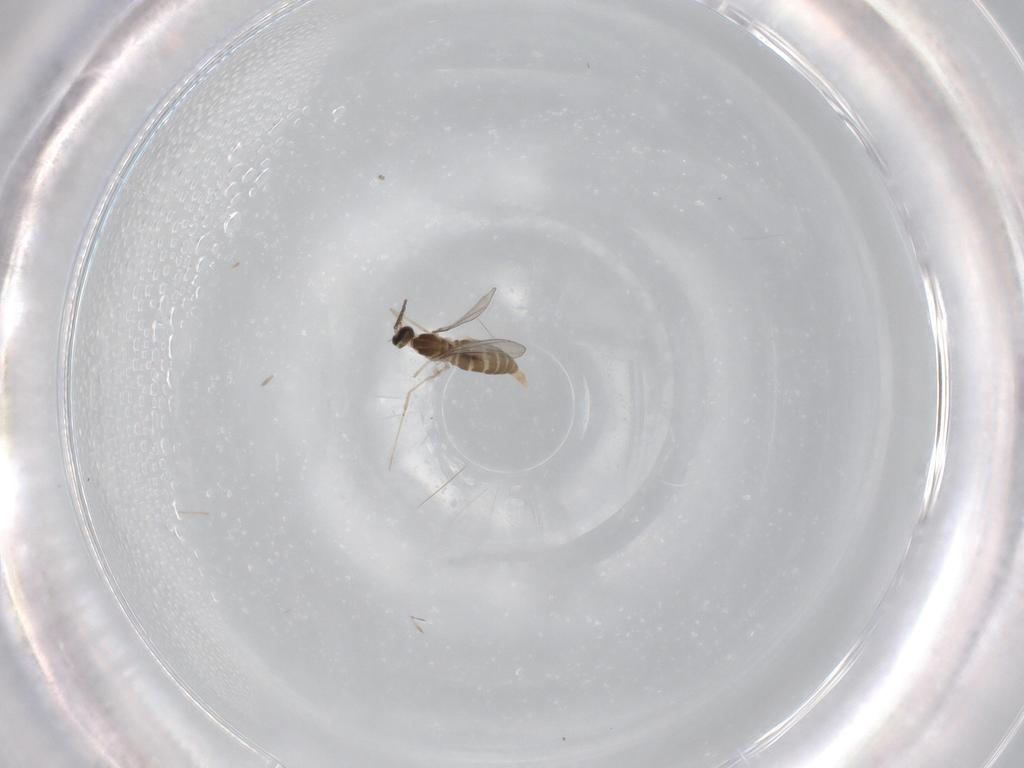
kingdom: Animalia
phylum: Arthropoda
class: Insecta
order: Diptera
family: Cecidomyiidae
